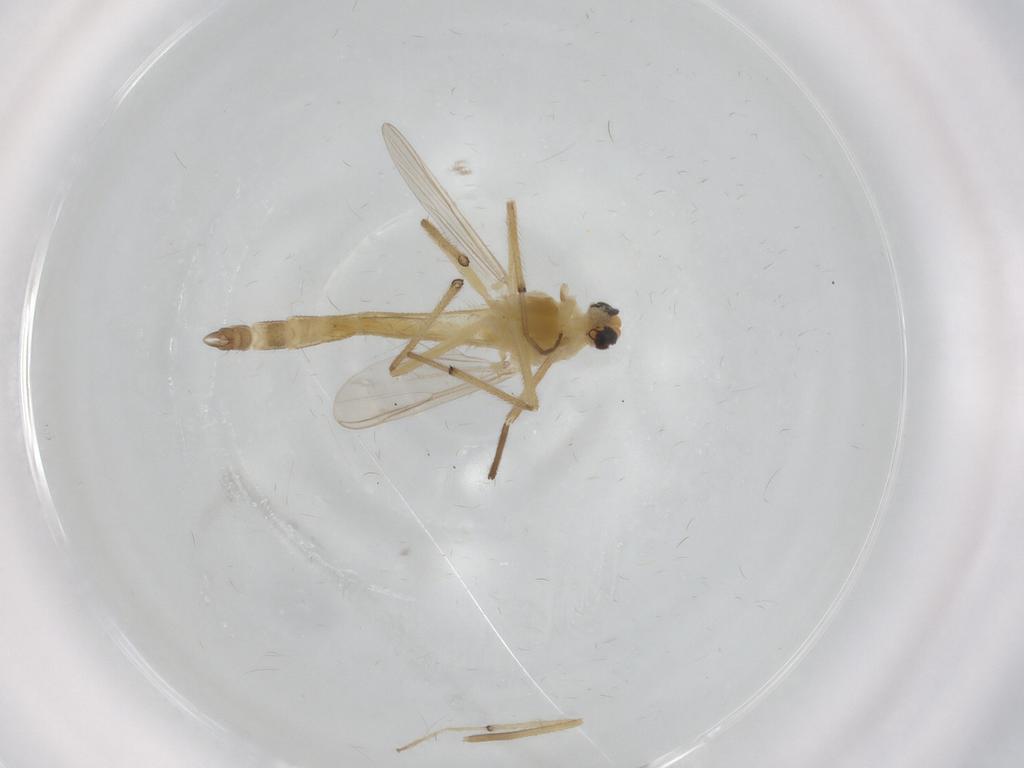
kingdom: Animalia
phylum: Arthropoda
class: Insecta
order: Diptera
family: Chironomidae
